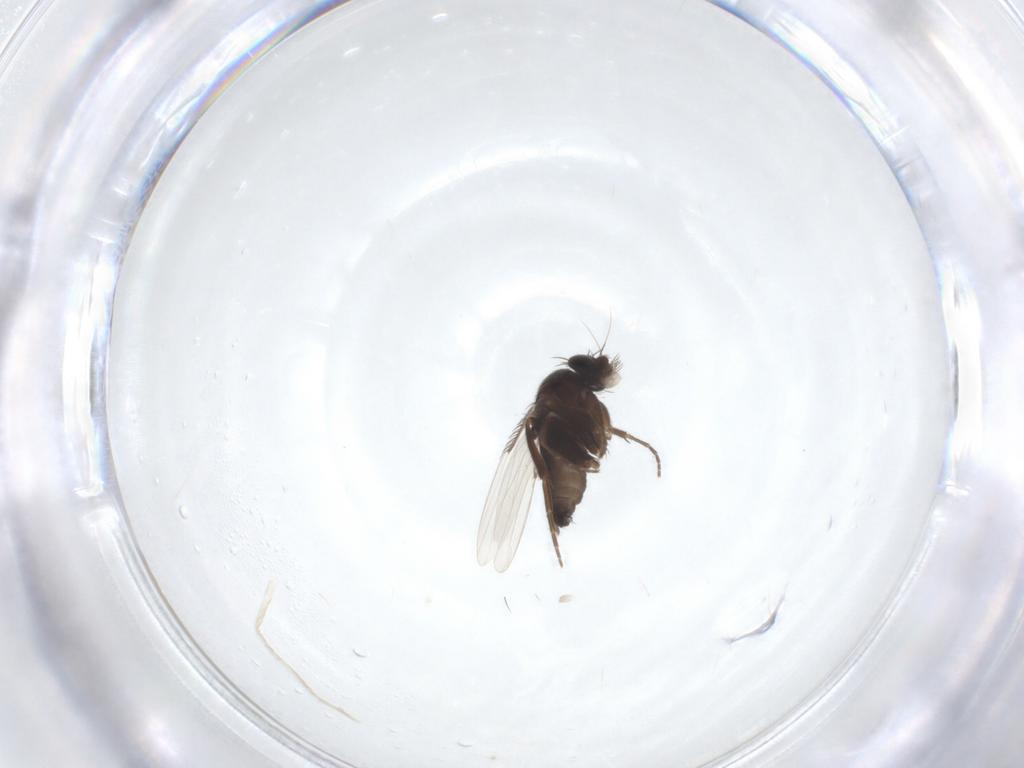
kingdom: Animalia
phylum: Arthropoda
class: Insecta
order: Diptera
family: Phoridae
